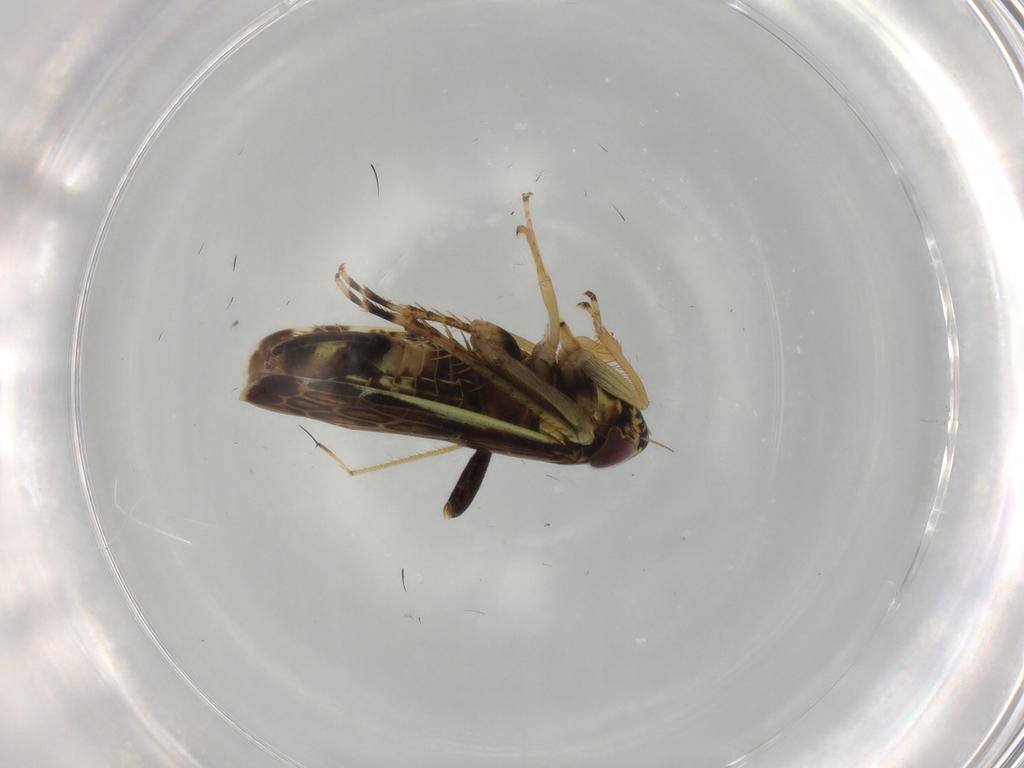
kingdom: Animalia
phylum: Arthropoda
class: Insecta
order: Hemiptera
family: Cicadellidae
